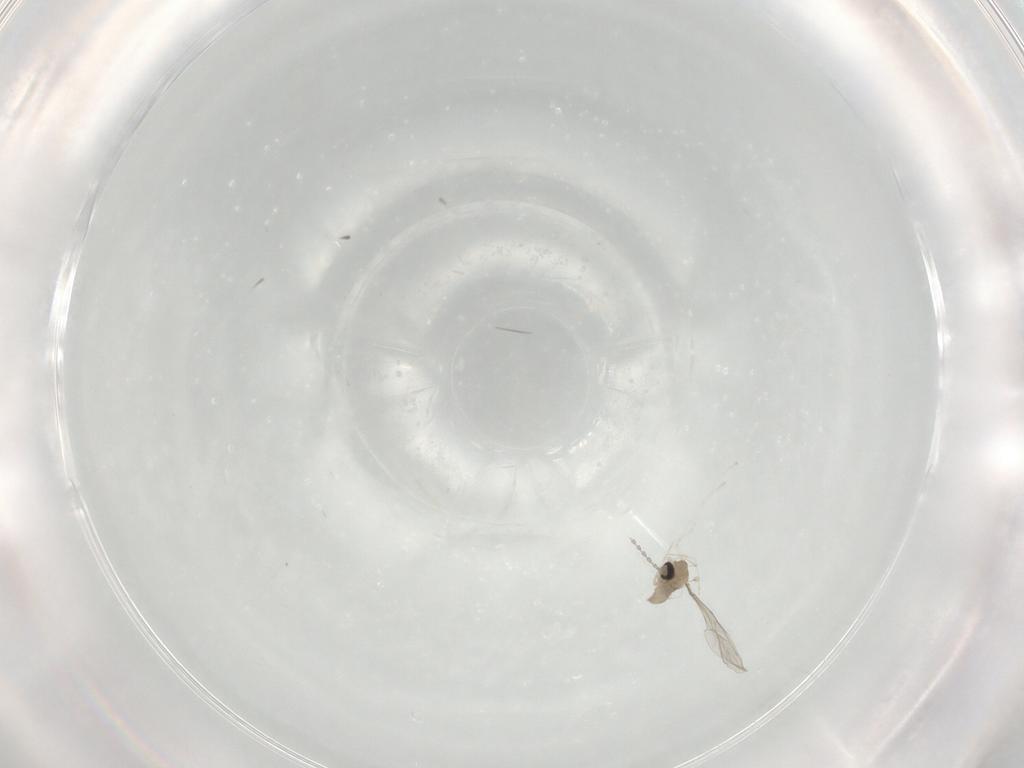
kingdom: Animalia
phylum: Arthropoda
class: Insecta
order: Diptera
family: Cecidomyiidae
